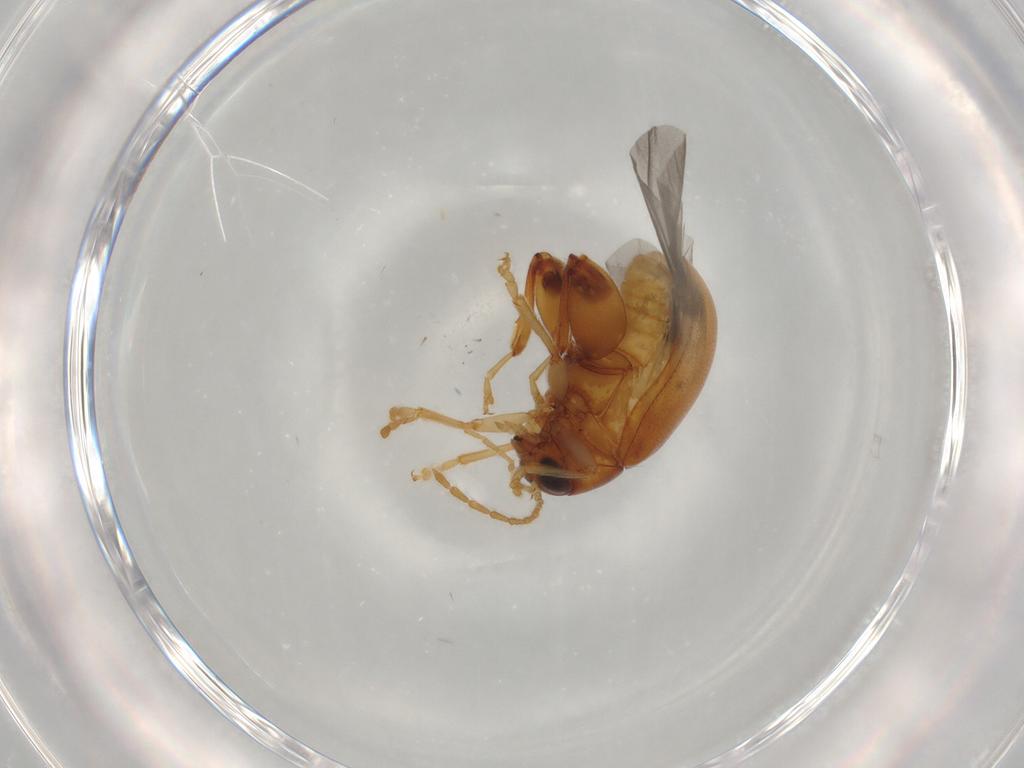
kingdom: Animalia
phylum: Arthropoda
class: Insecta
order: Coleoptera
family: Chrysomelidae
